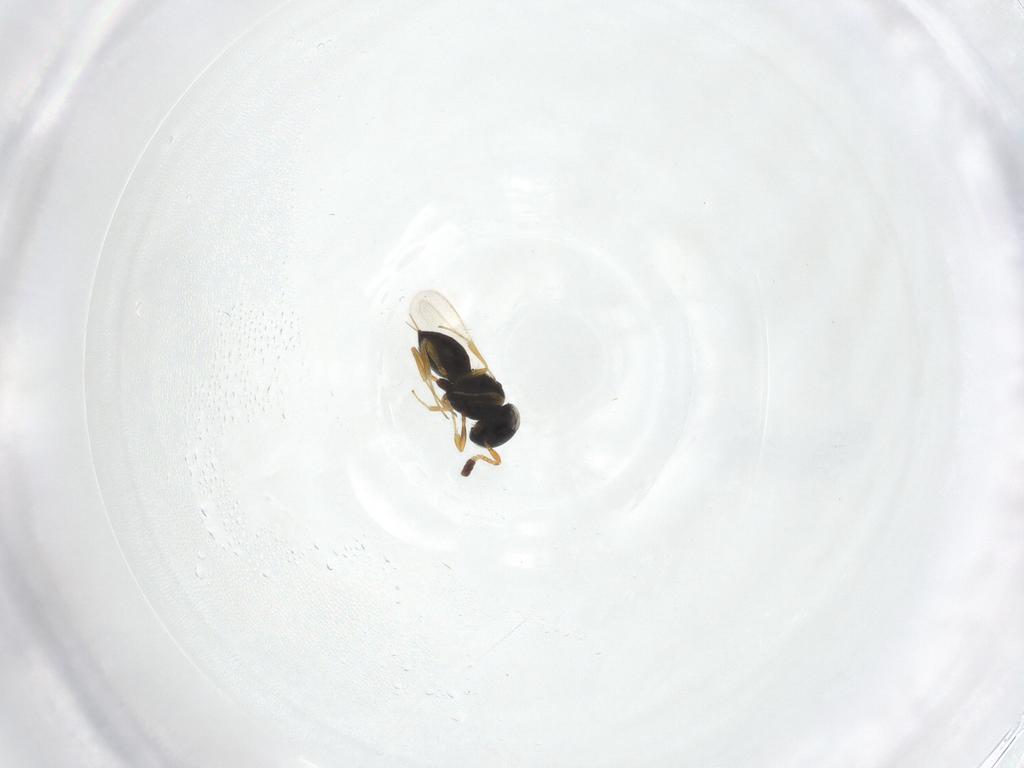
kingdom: Animalia
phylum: Arthropoda
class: Insecta
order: Hymenoptera
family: Scelionidae
